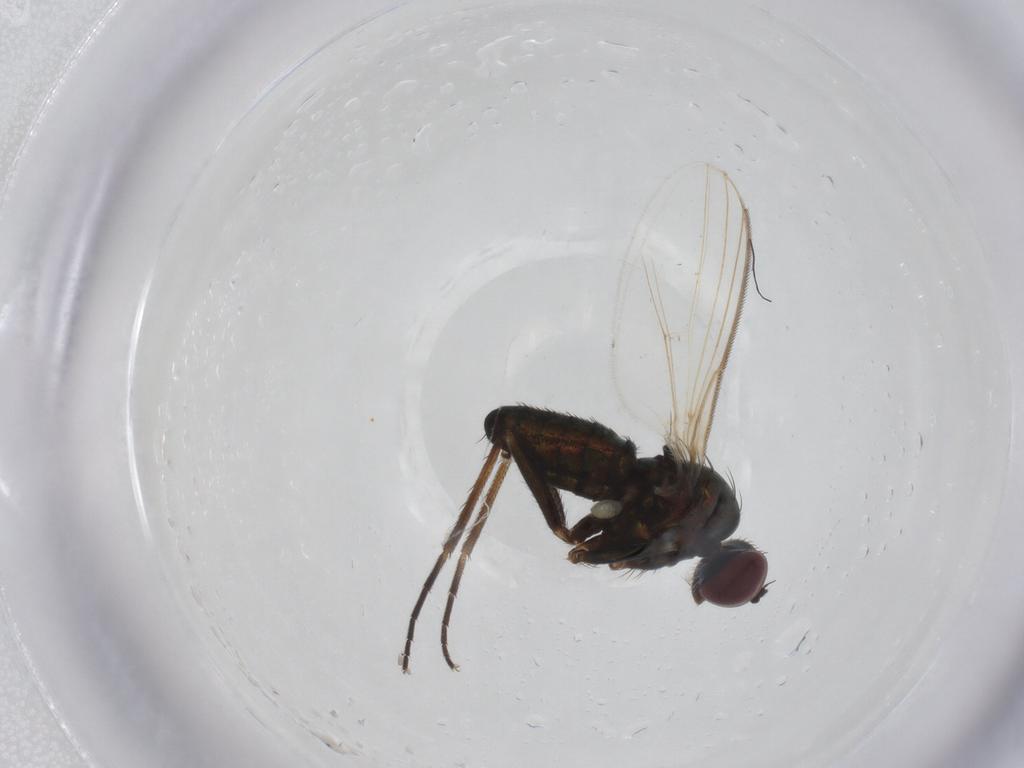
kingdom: Animalia
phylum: Arthropoda
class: Insecta
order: Diptera
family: Dolichopodidae
